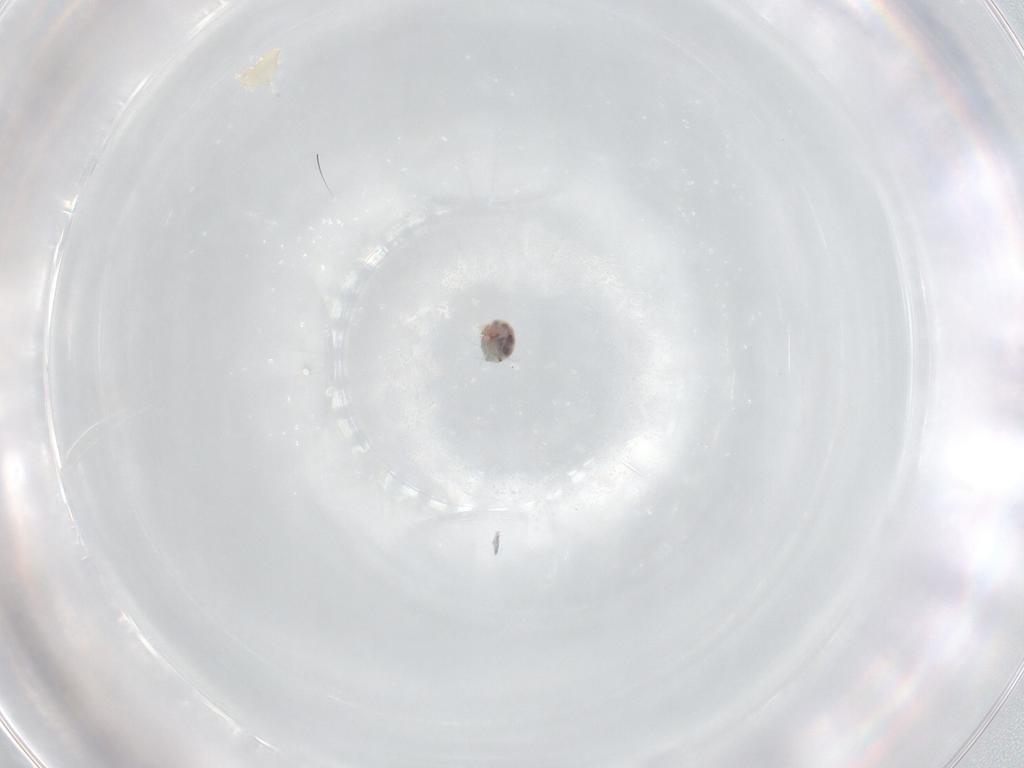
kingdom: Animalia
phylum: Arthropoda
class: Arachnida
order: Trombidiformes
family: Unionicolidae
